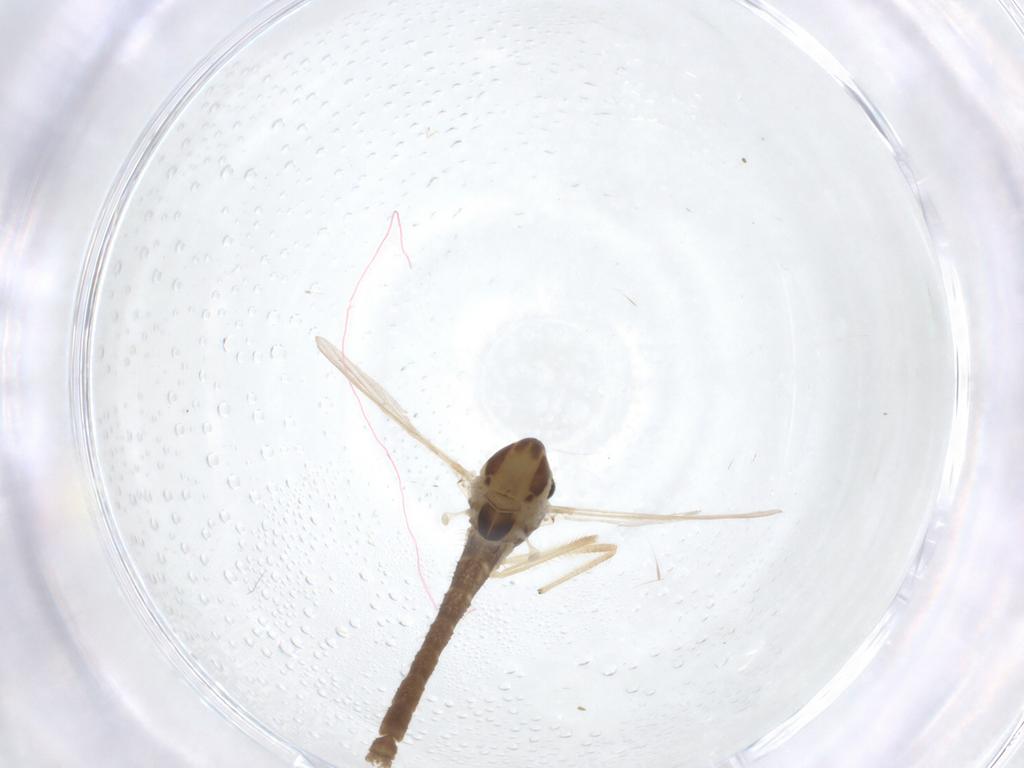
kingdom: Animalia
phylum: Arthropoda
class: Insecta
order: Diptera
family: Chironomidae
